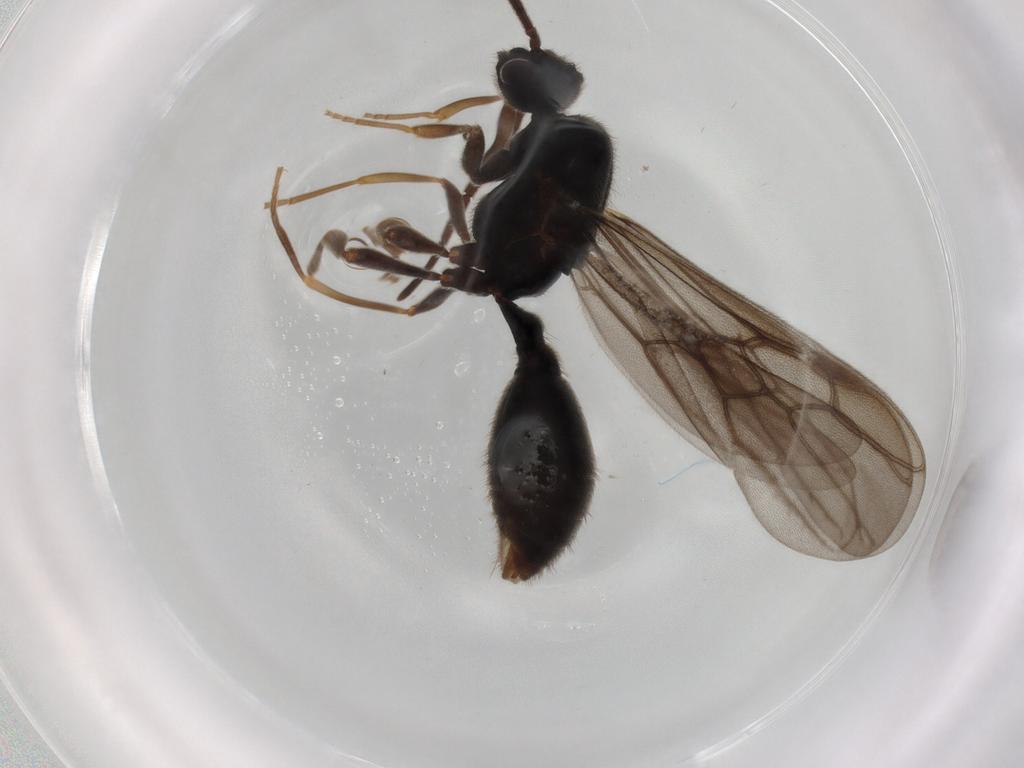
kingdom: Animalia
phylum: Arthropoda
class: Insecta
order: Hymenoptera
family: Formicidae
